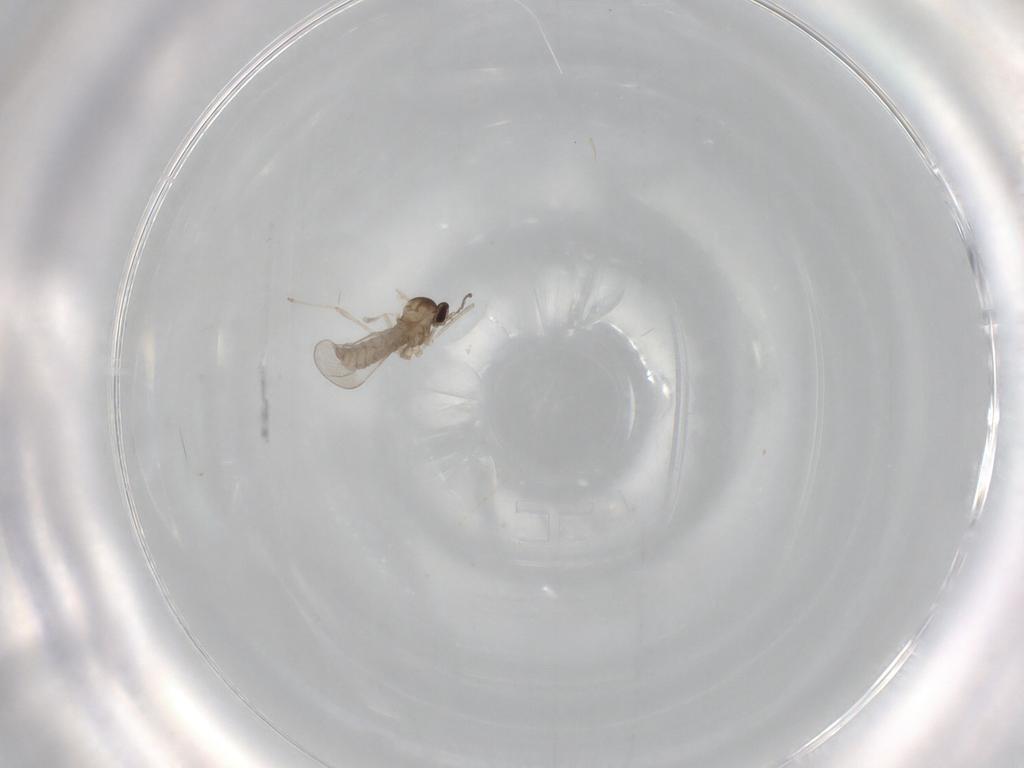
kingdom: Animalia
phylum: Arthropoda
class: Insecta
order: Diptera
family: Cecidomyiidae
